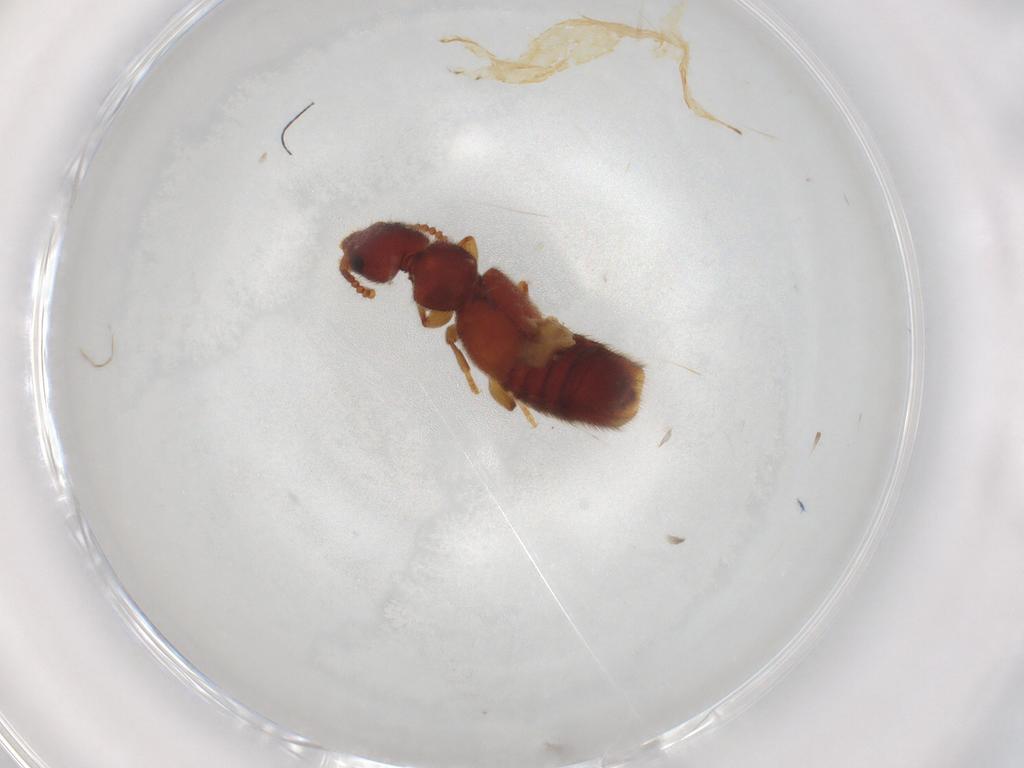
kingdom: Animalia
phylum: Arthropoda
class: Insecta
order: Coleoptera
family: Staphylinidae
